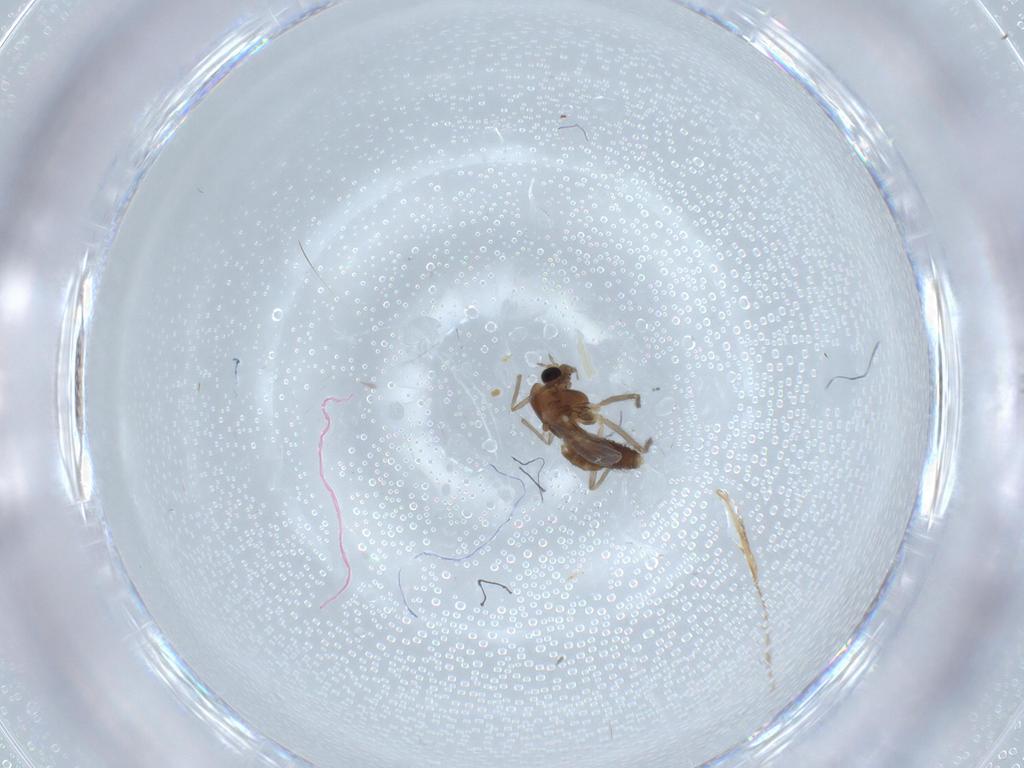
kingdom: Animalia
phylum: Arthropoda
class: Insecta
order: Diptera
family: Chironomidae
